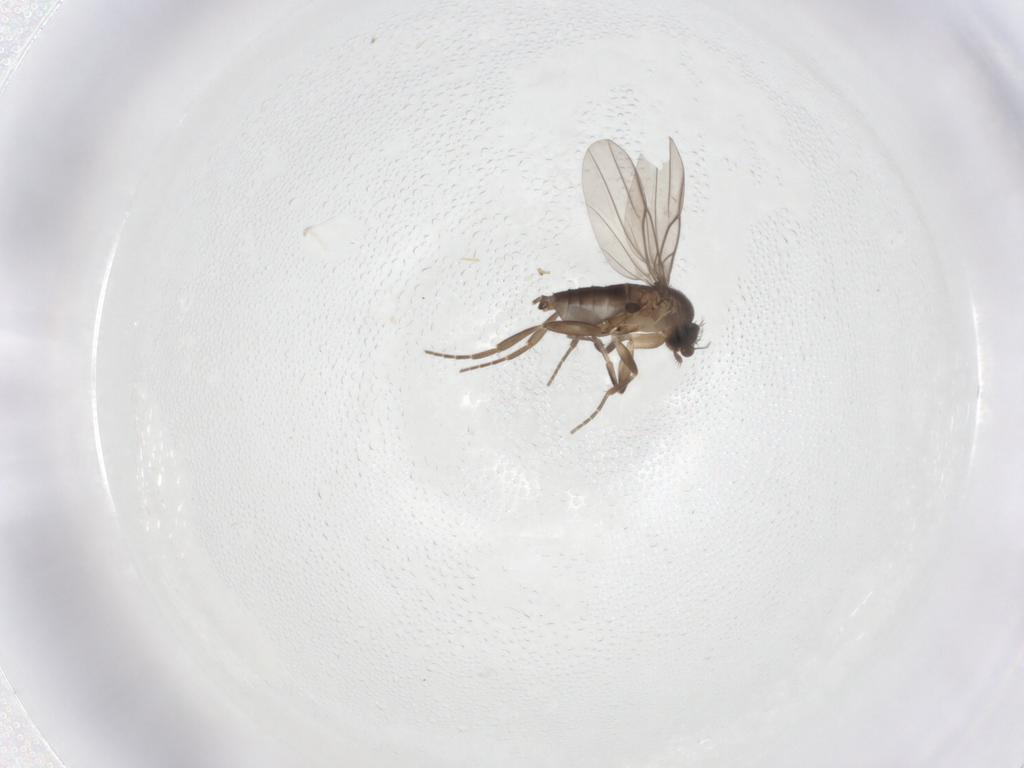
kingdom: Animalia
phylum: Arthropoda
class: Insecta
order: Diptera
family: Phoridae
